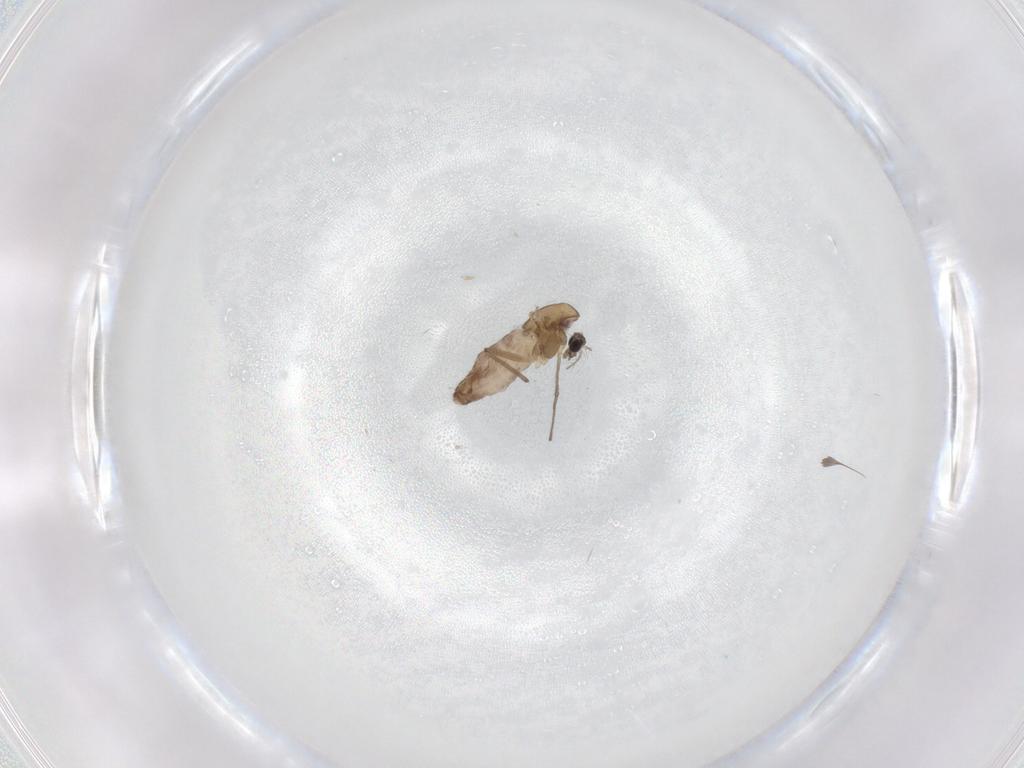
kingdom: Animalia
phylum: Arthropoda
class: Insecta
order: Diptera
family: Chironomidae
